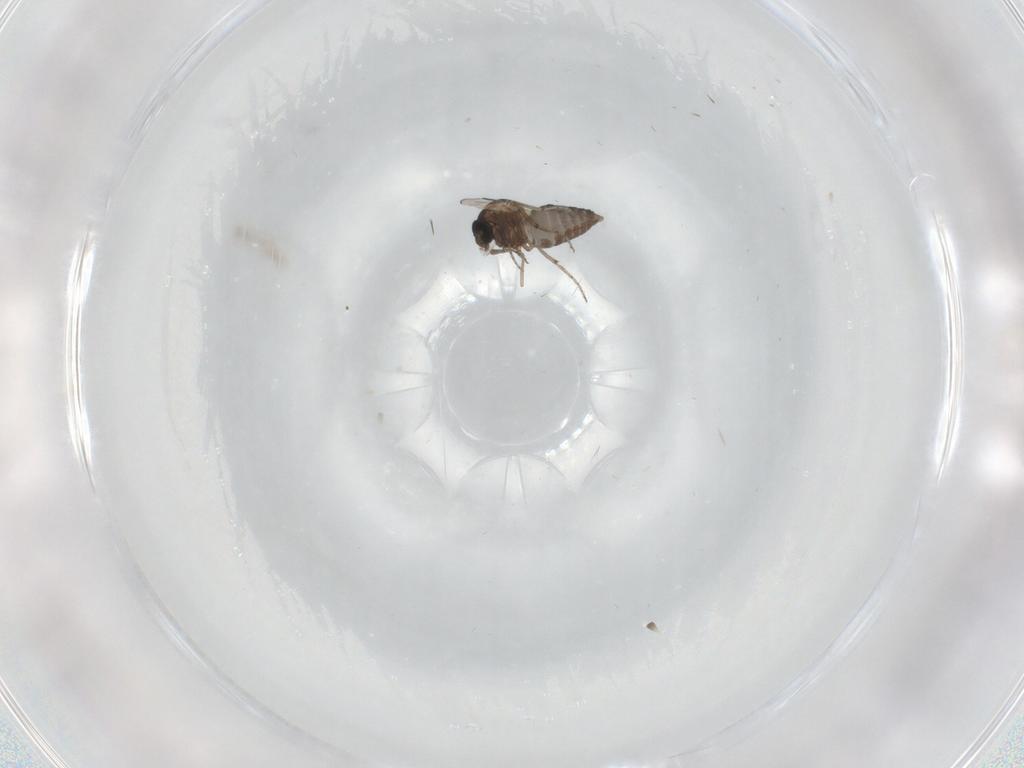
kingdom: Animalia
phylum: Arthropoda
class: Insecta
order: Diptera
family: Ceratopogonidae
